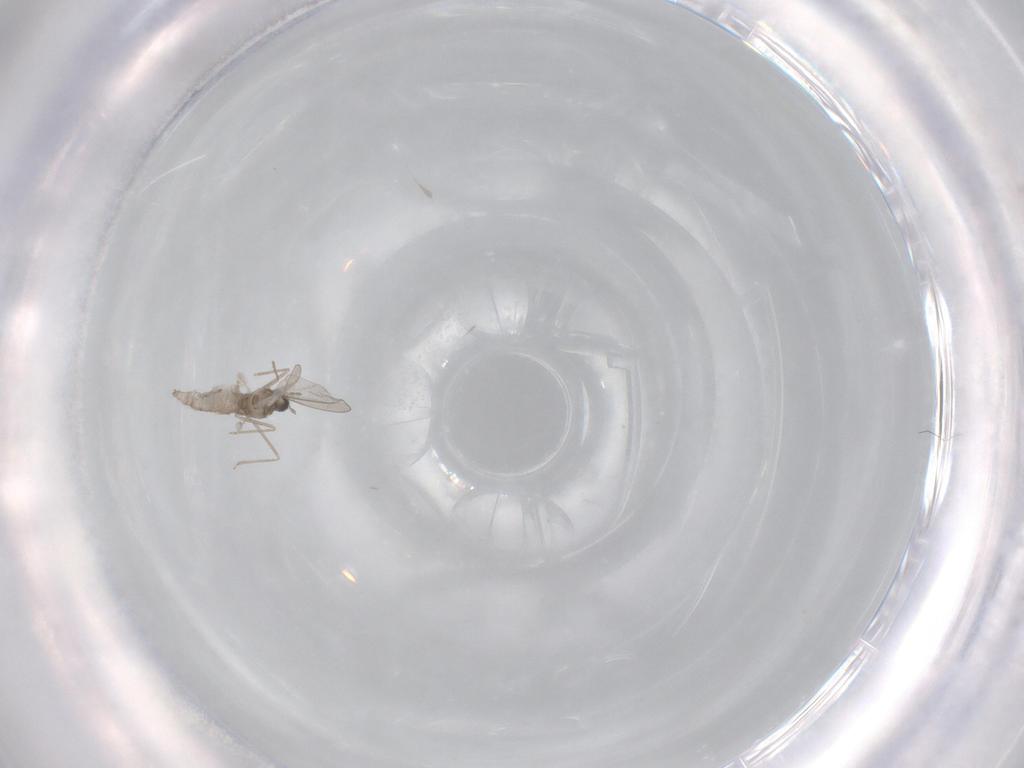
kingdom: Animalia
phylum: Arthropoda
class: Insecta
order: Diptera
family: Cecidomyiidae
